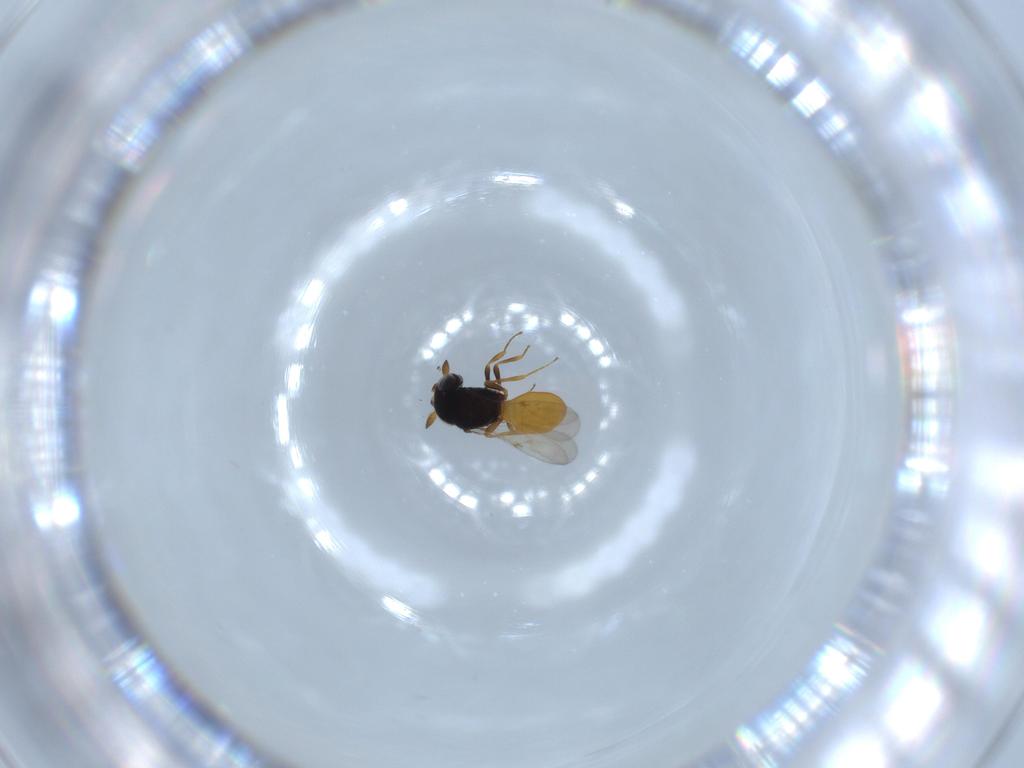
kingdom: Animalia
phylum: Arthropoda
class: Insecta
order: Hymenoptera
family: Scelionidae
